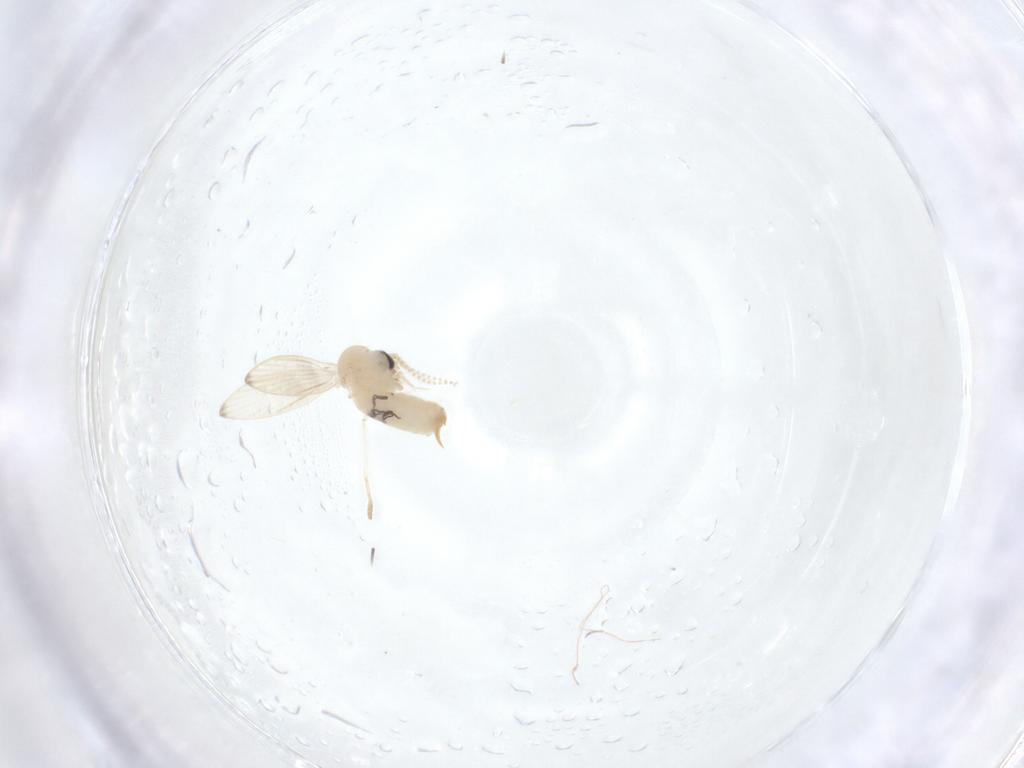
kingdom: Animalia
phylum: Arthropoda
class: Insecta
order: Diptera
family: Psychodidae
